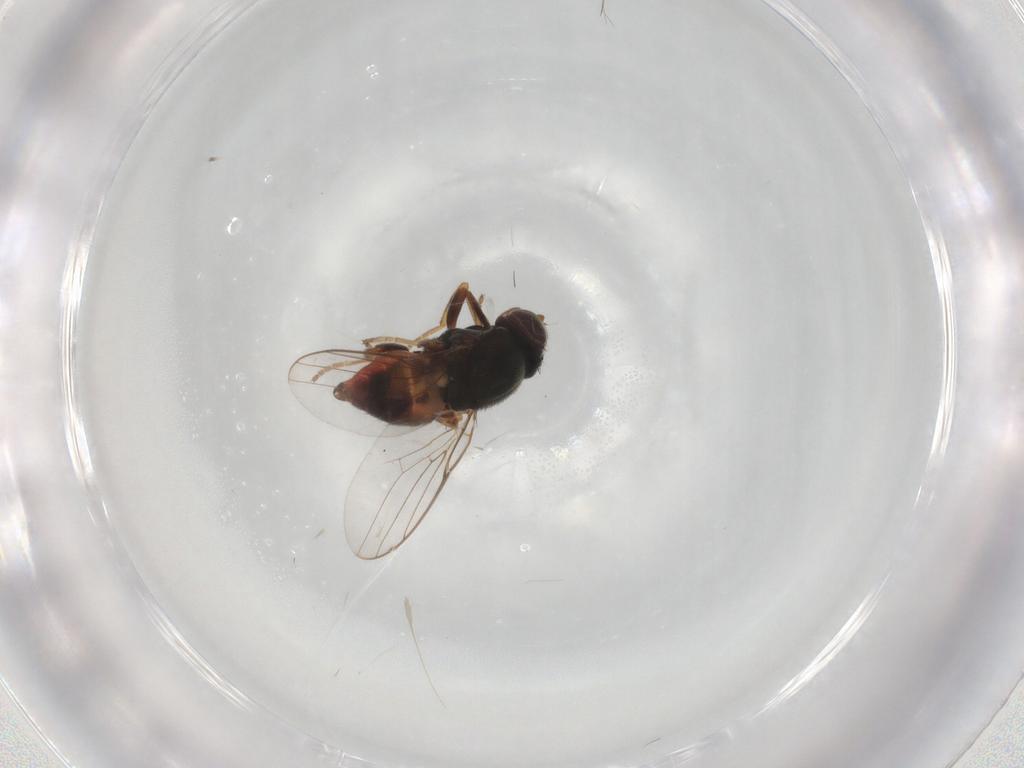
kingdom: Animalia
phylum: Arthropoda
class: Insecta
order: Diptera
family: Chloropidae
